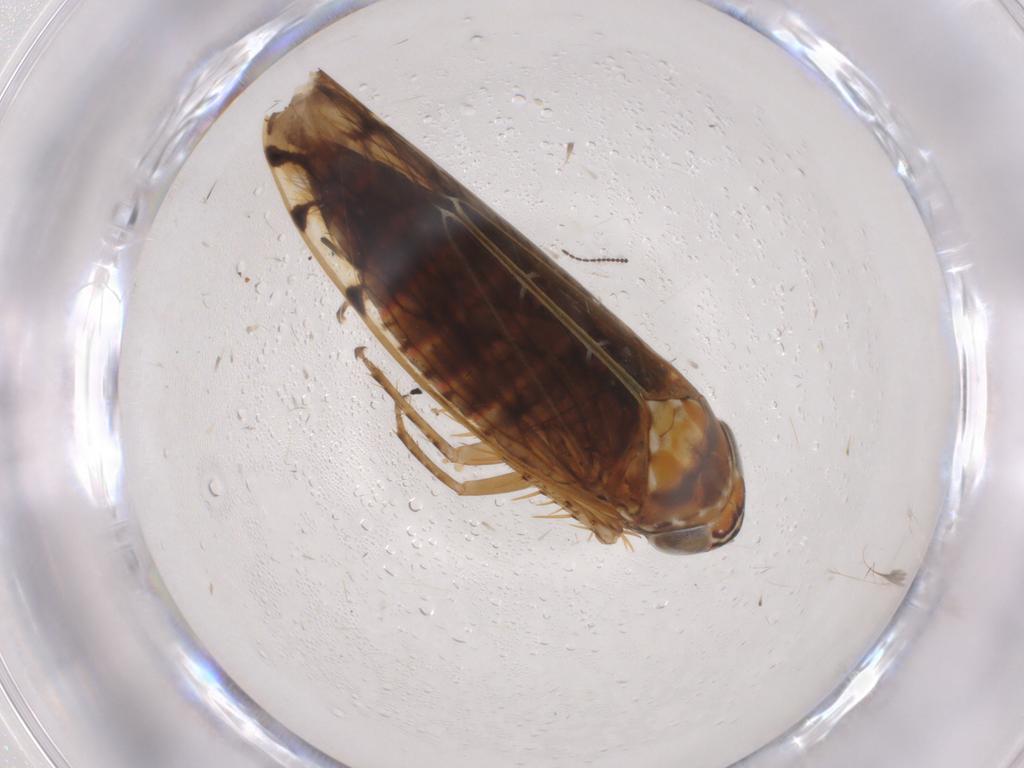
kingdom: Animalia
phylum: Arthropoda
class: Insecta
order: Hemiptera
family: Cicadellidae
